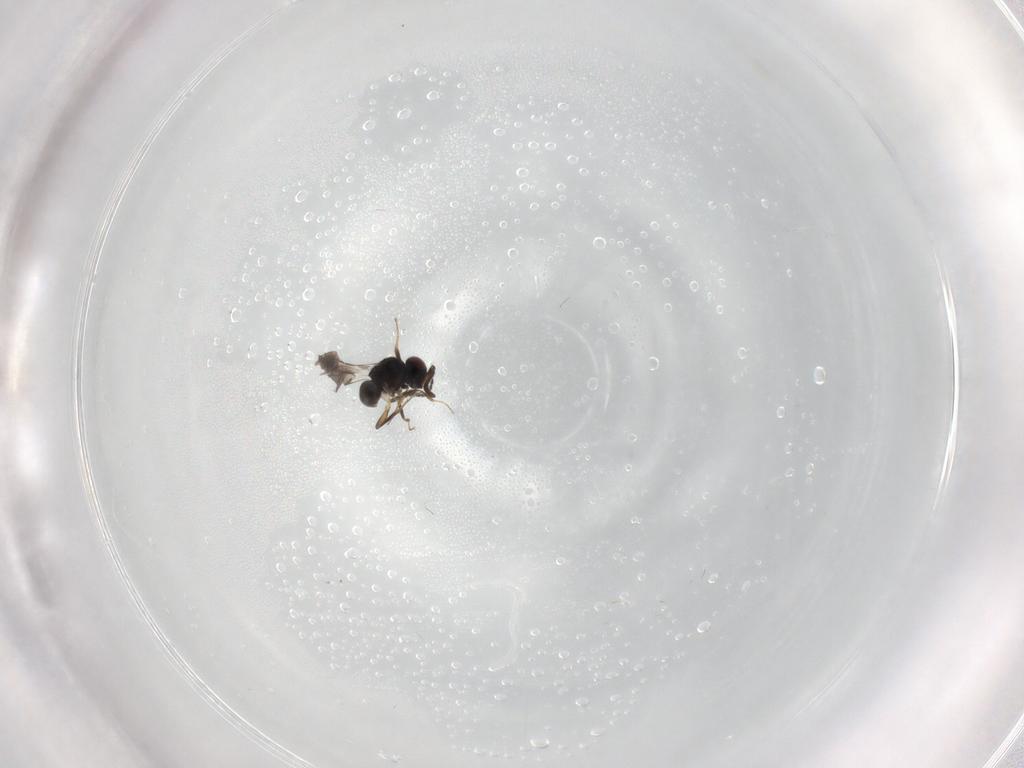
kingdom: Animalia
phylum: Arthropoda
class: Insecta
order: Hymenoptera
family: Mymaridae
